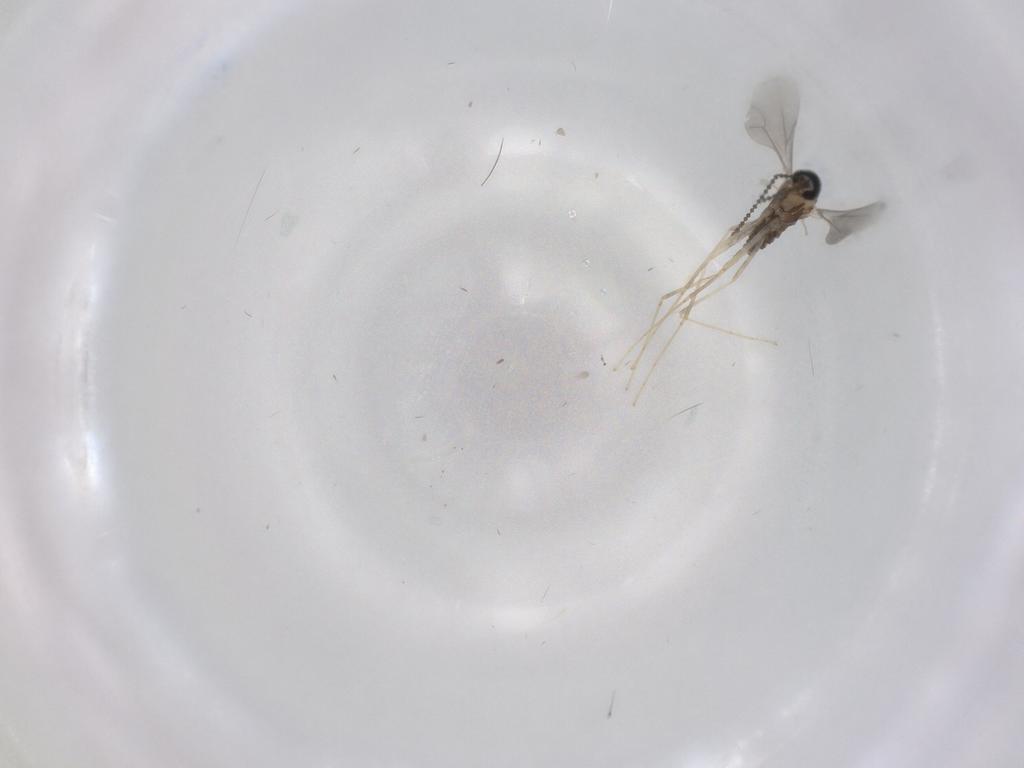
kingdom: Animalia
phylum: Arthropoda
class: Insecta
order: Diptera
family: Cecidomyiidae
